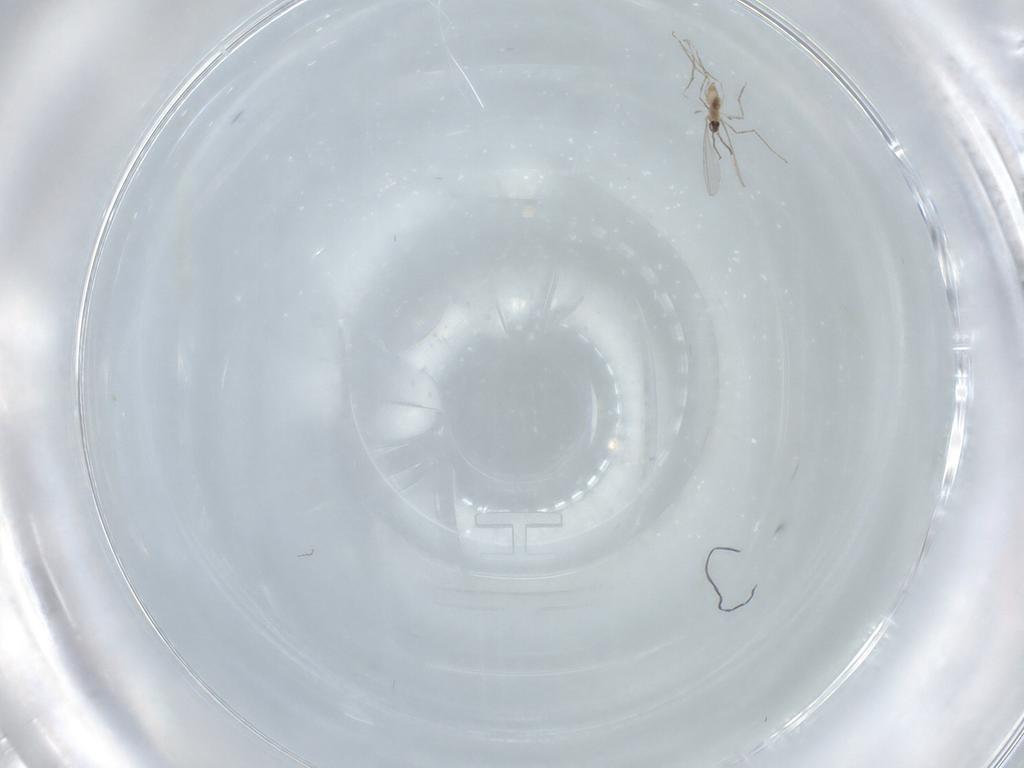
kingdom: Animalia
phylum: Arthropoda
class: Insecta
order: Diptera
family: Cecidomyiidae
